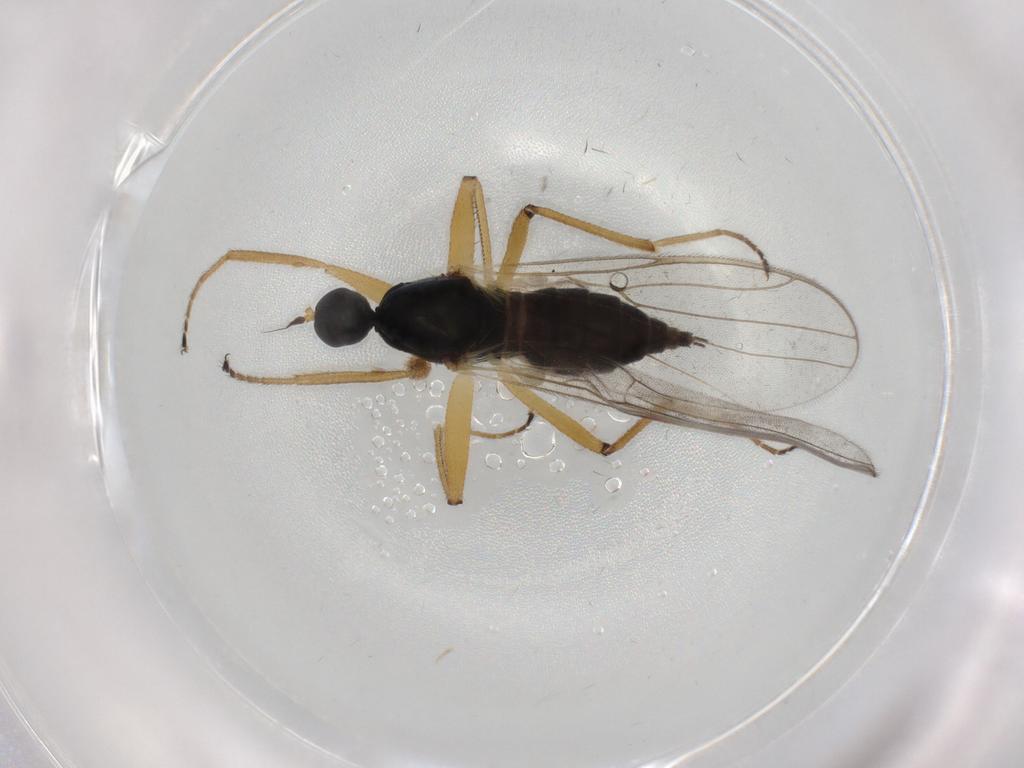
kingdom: Animalia
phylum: Arthropoda
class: Insecta
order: Diptera
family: Hybotidae
